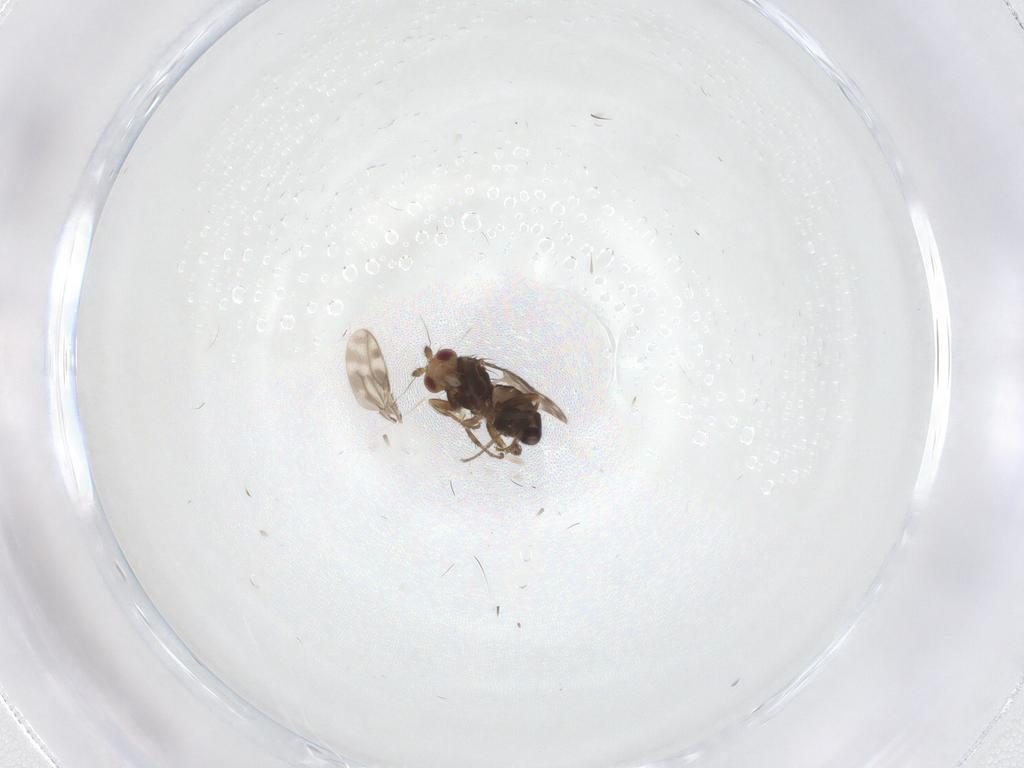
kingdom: Animalia
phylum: Arthropoda
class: Insecta
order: Diptera
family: Sphaeroceridae
